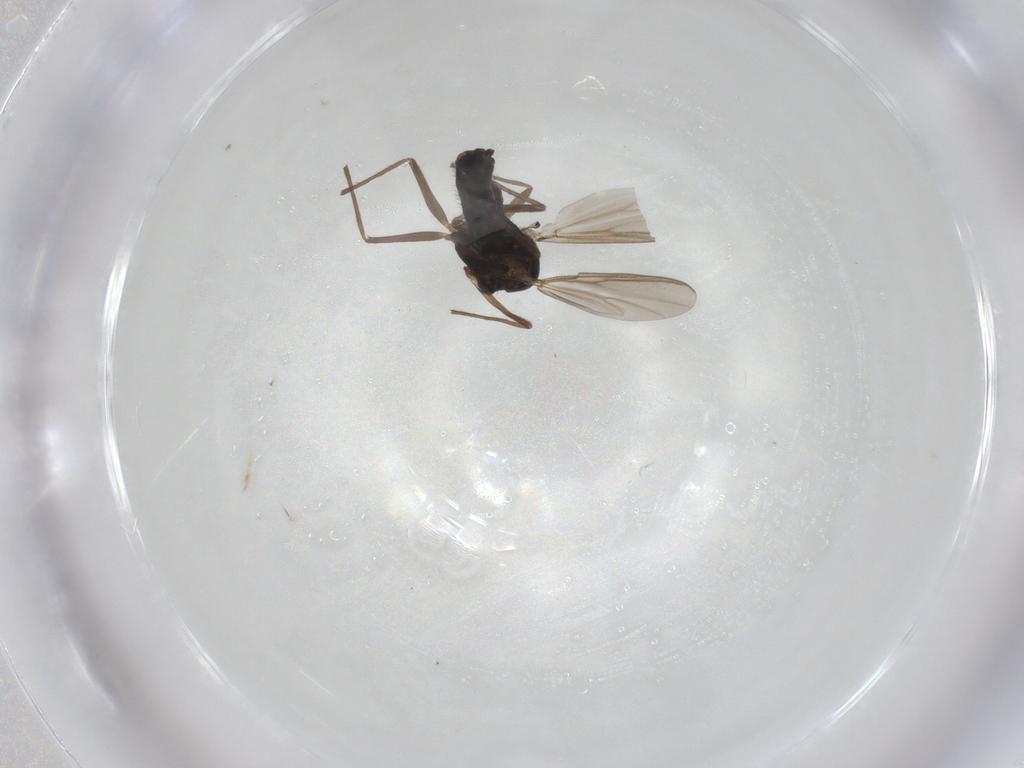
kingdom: Animalia
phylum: Arthropoda
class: Insecta
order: Diptera
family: Chironomidae
